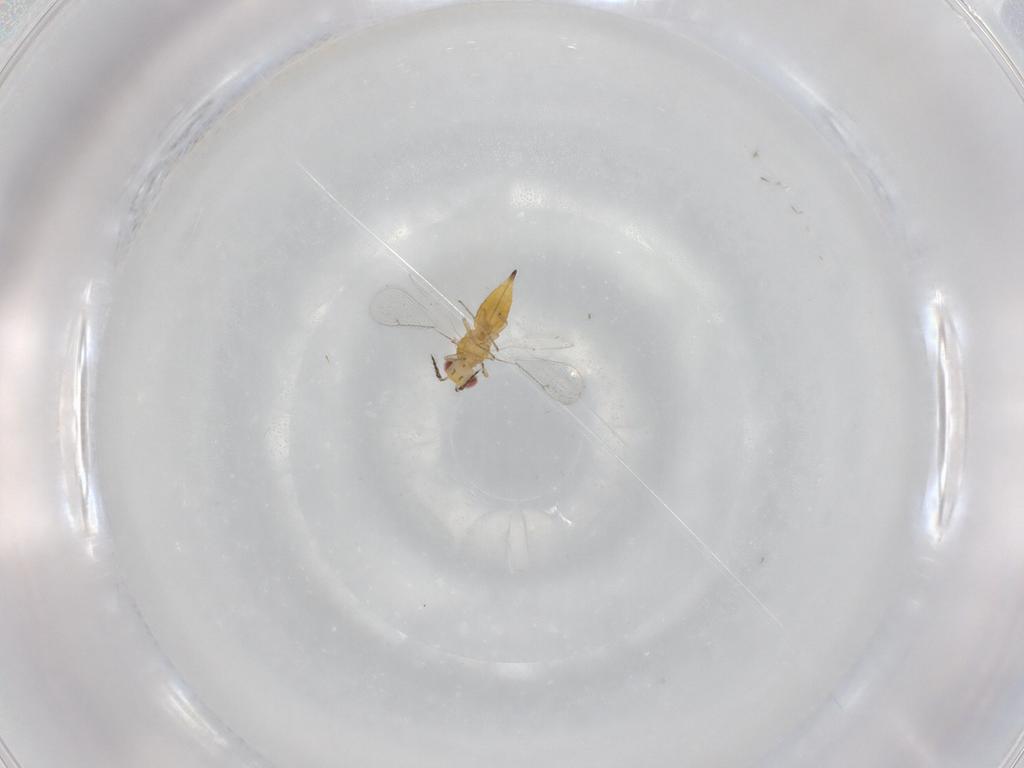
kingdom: Animalia
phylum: Arthropoda
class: Insecta
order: Hymenoptera
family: Eulophidae
